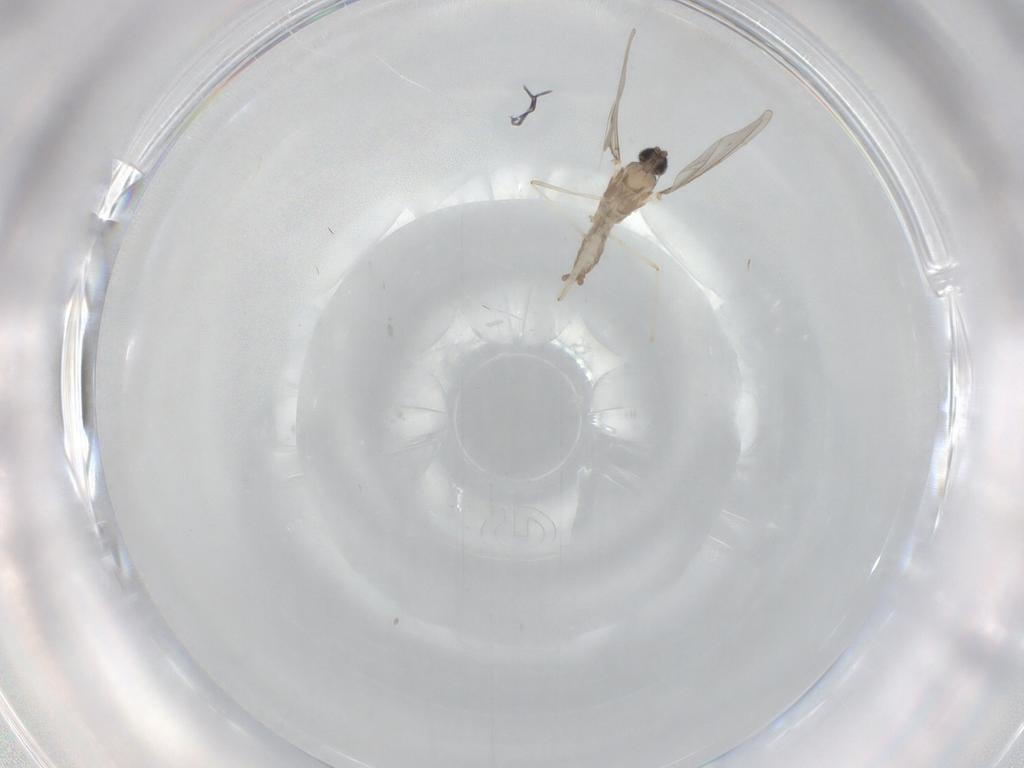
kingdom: Animalia
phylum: Arthropoda
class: Insecta
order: Diptera
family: Cecidomyiidae
